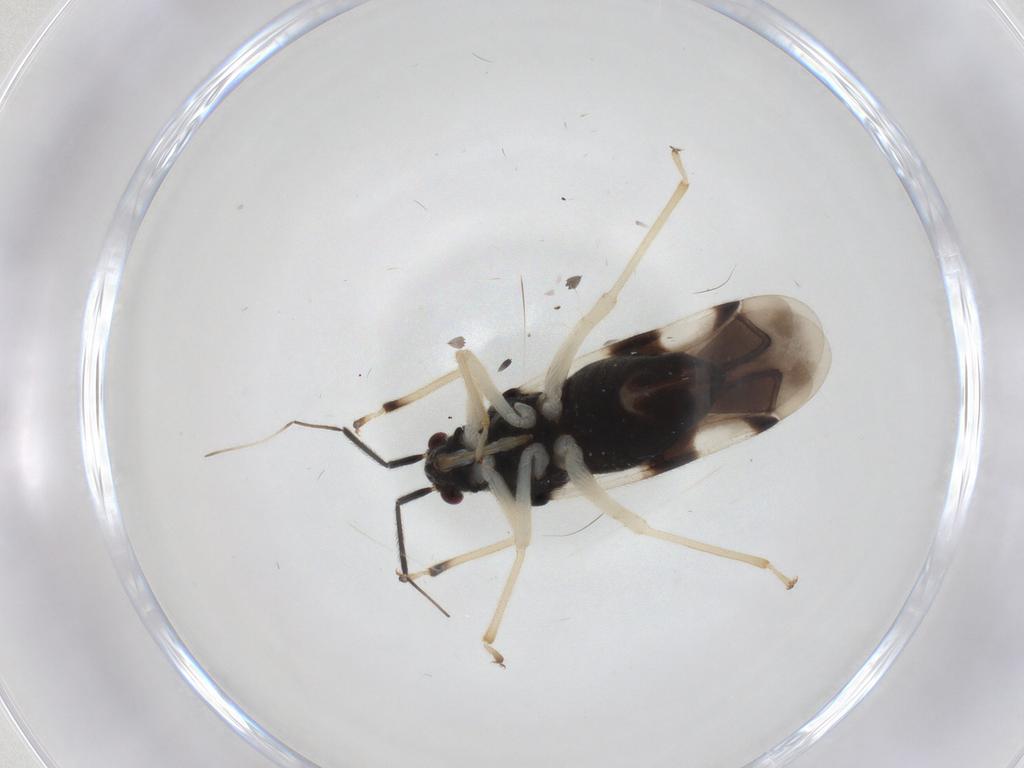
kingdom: Animalia
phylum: Arthropoda
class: Insecta
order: Hemiptera
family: Miridae
